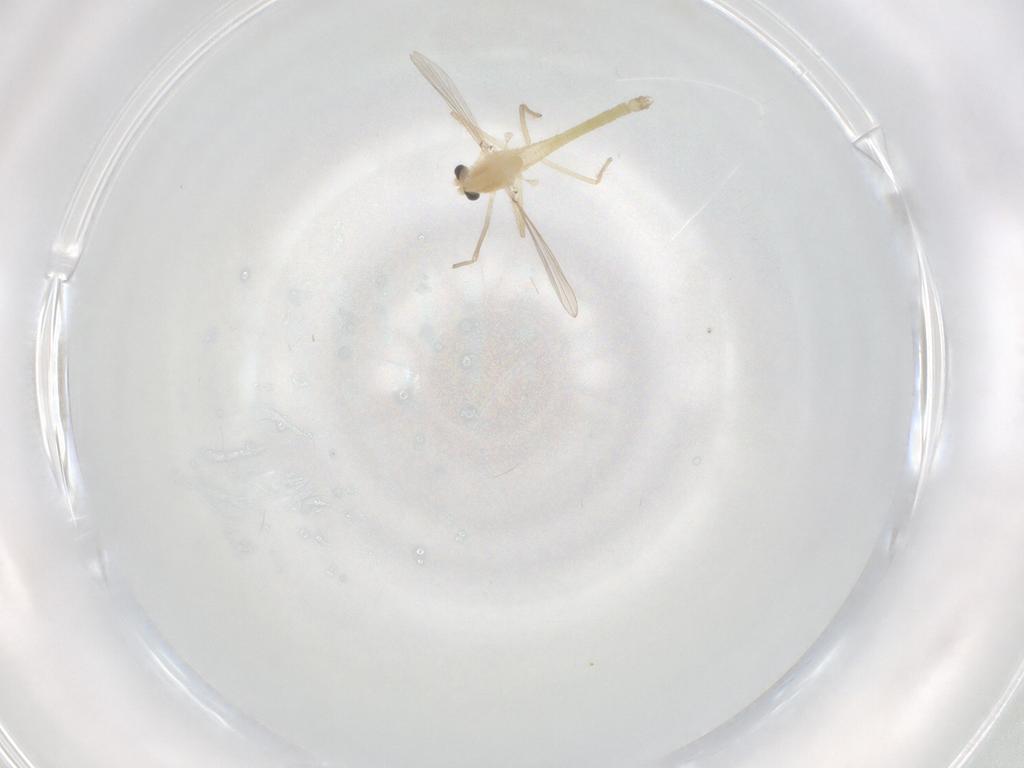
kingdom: Animalia
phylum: Arthropoda
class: Insecta
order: Diptera
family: Chironomidae
